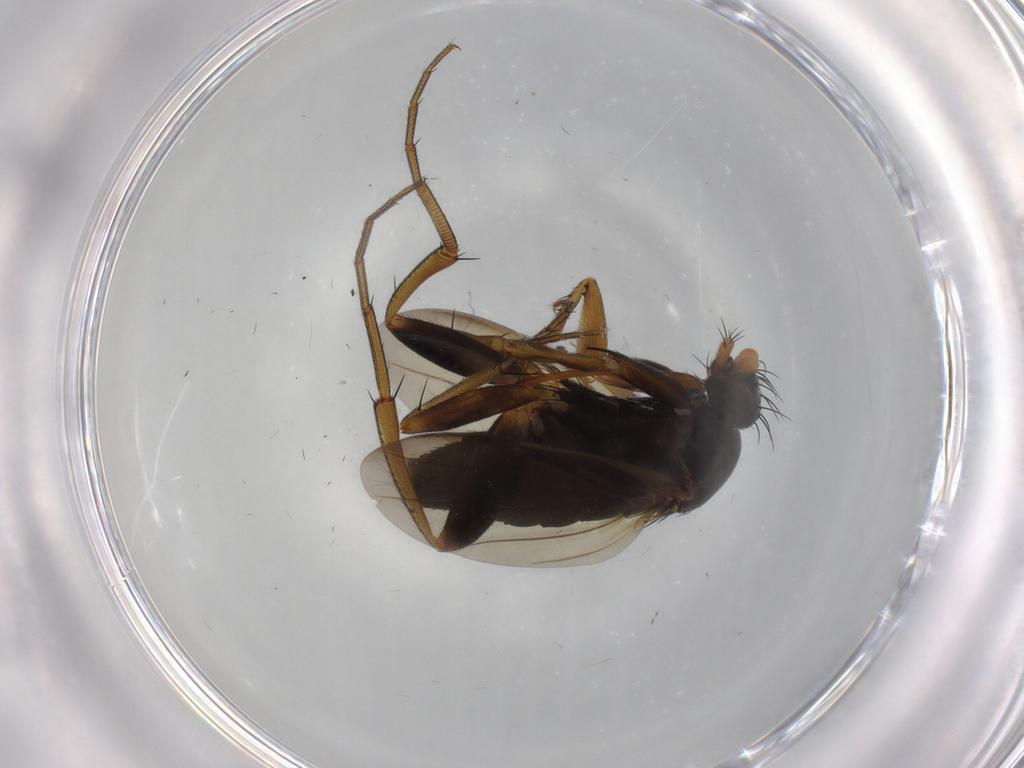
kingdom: Animalia
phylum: Arthropoda
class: Insecta
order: Diptera
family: Phoridae
